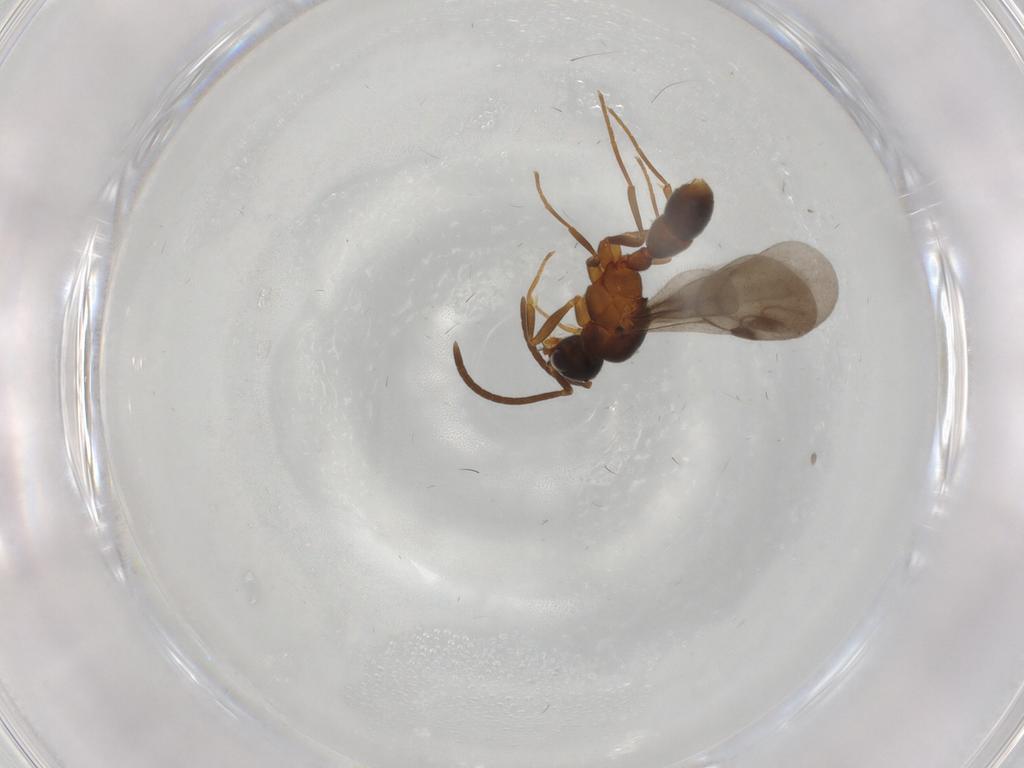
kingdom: Animalia
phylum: Arthropoda
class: Insecta
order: Hymenoptera
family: Formicidae
